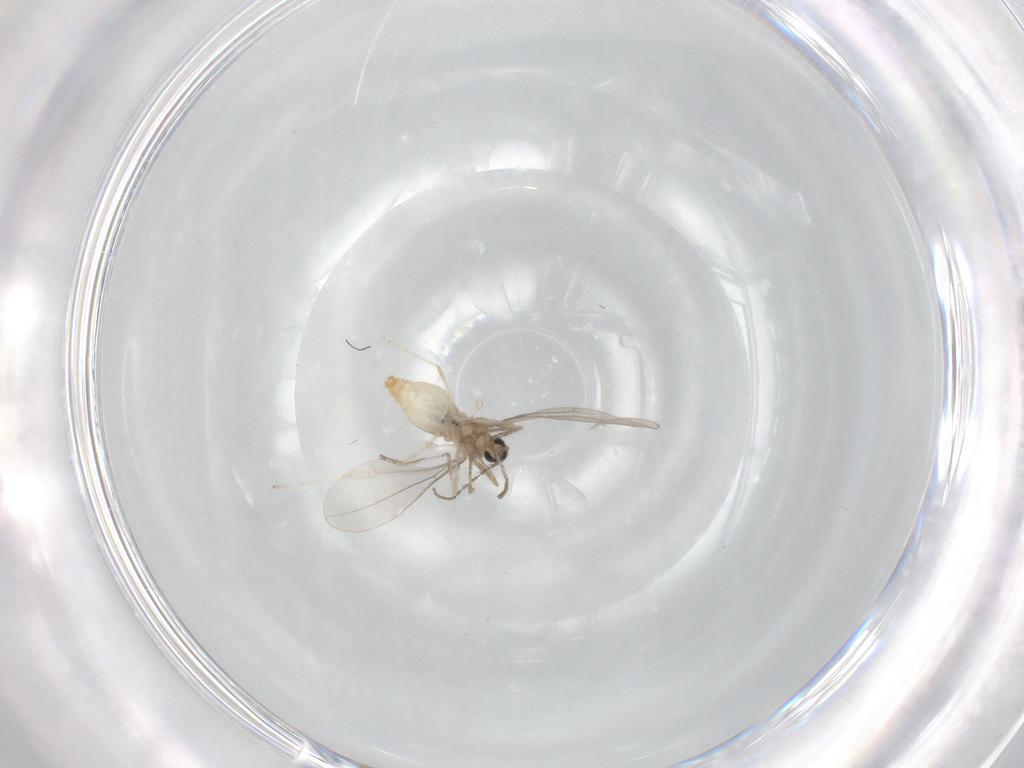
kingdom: Animalia
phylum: Arthropoda
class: Insecta
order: Diptera
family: Cecidomyiidae
